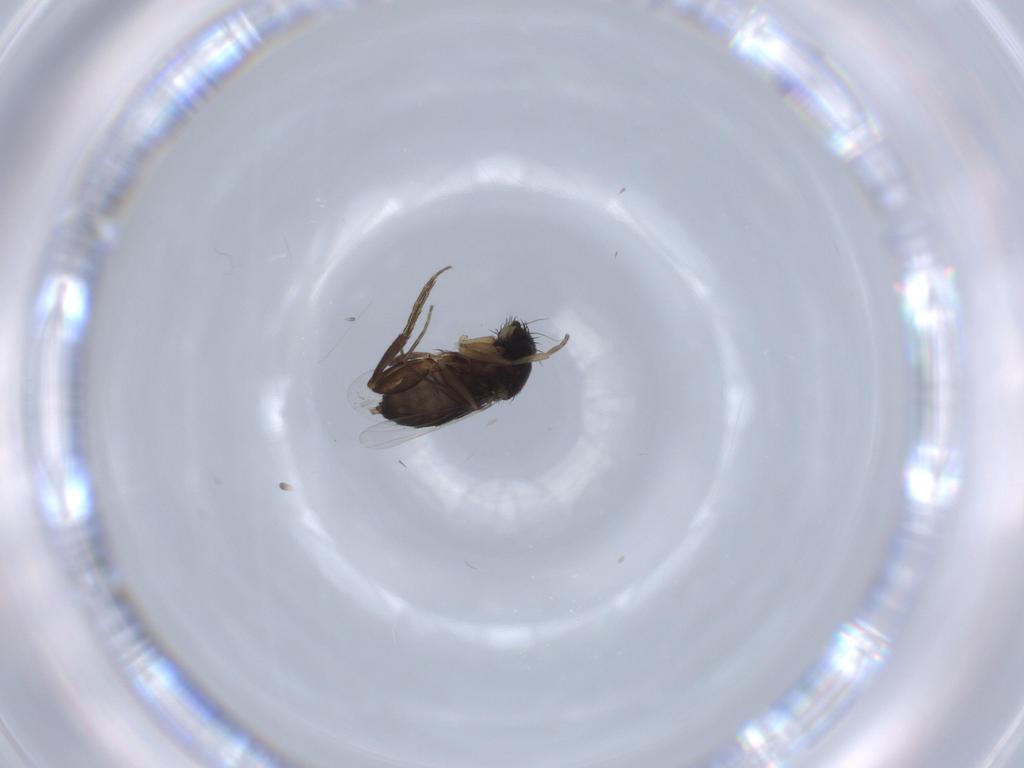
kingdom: Animalia
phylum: Arthropoda
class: Insecta
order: Diptera
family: Phoridae
